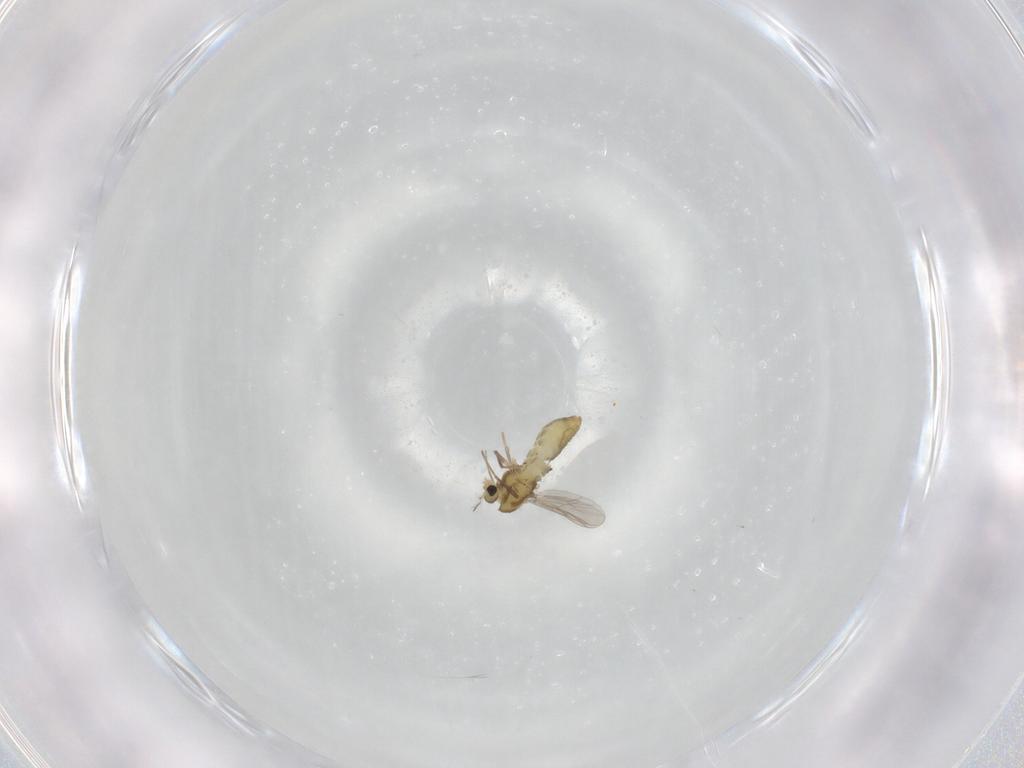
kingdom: Animalia
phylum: Arthropoda
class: Insecta
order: Diptera
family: Chironomidae
